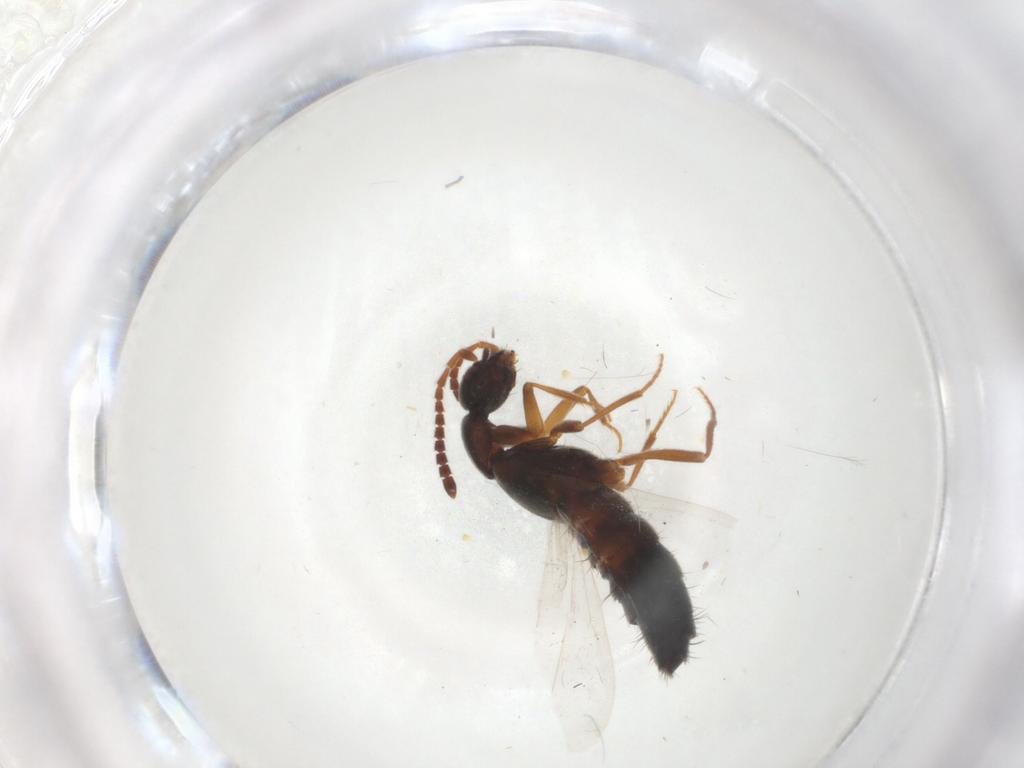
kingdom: Animalia
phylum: Arthropoda
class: Insecta
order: Coleoptera
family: Staphylinidae
